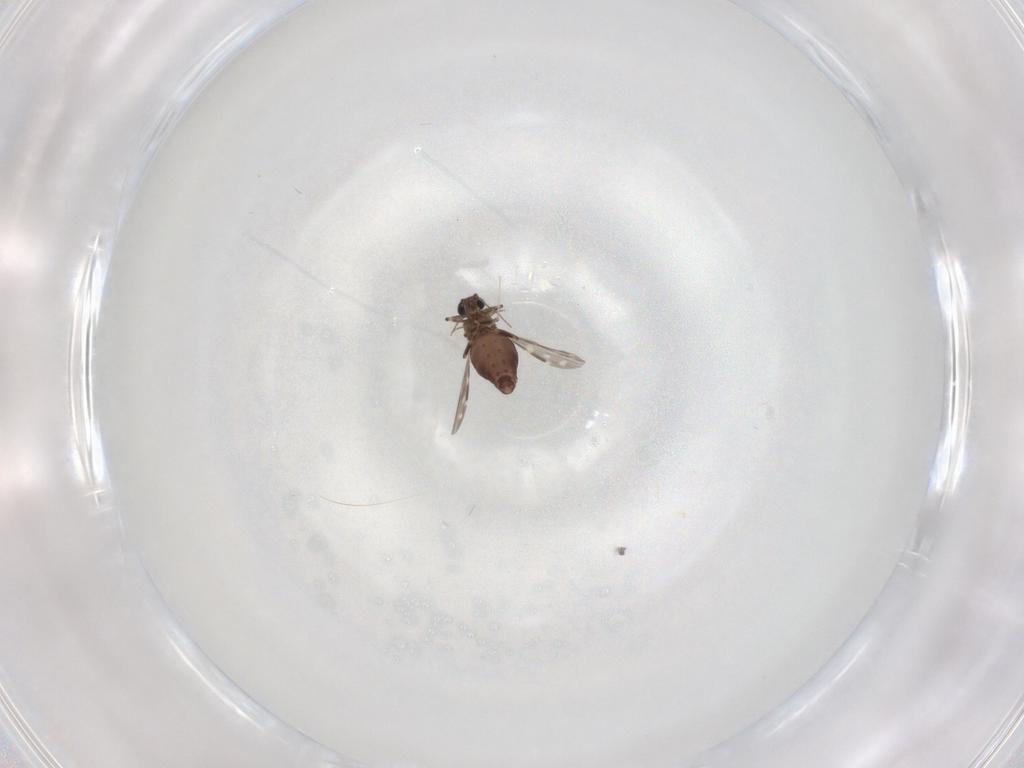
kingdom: Animalia
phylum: Arthropoda
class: Insecta
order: Diptera
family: Cecidomyiidae
